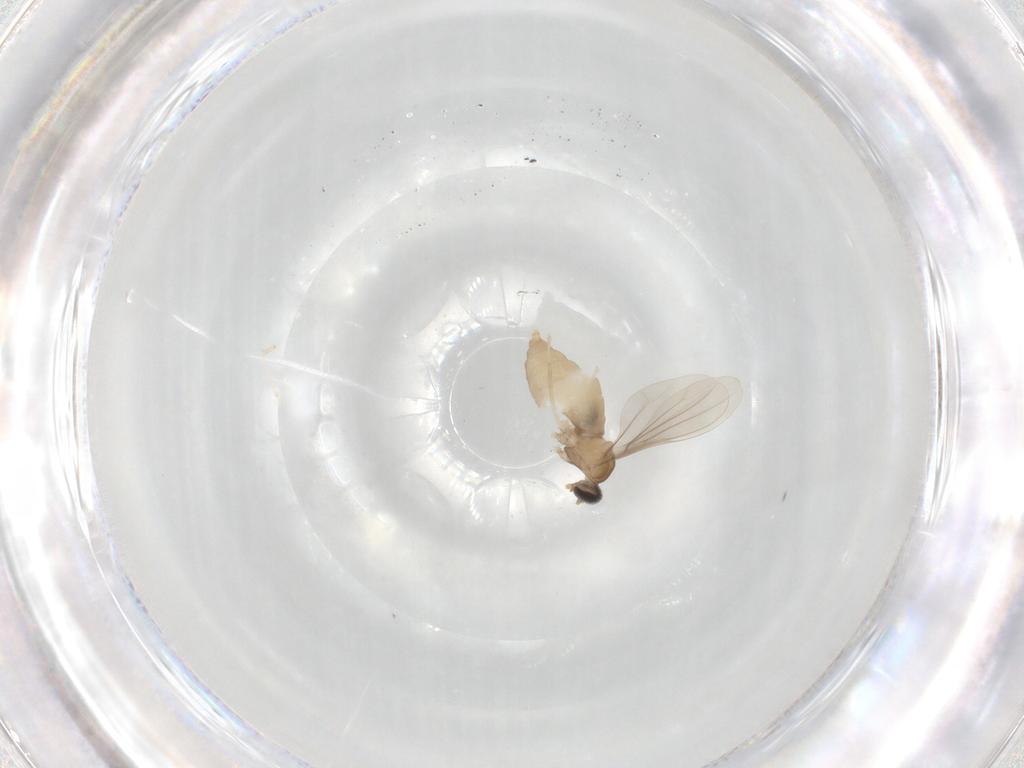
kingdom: Animalia
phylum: Arthropoda
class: Insecta
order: Diptera
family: Cecidomyiidae
